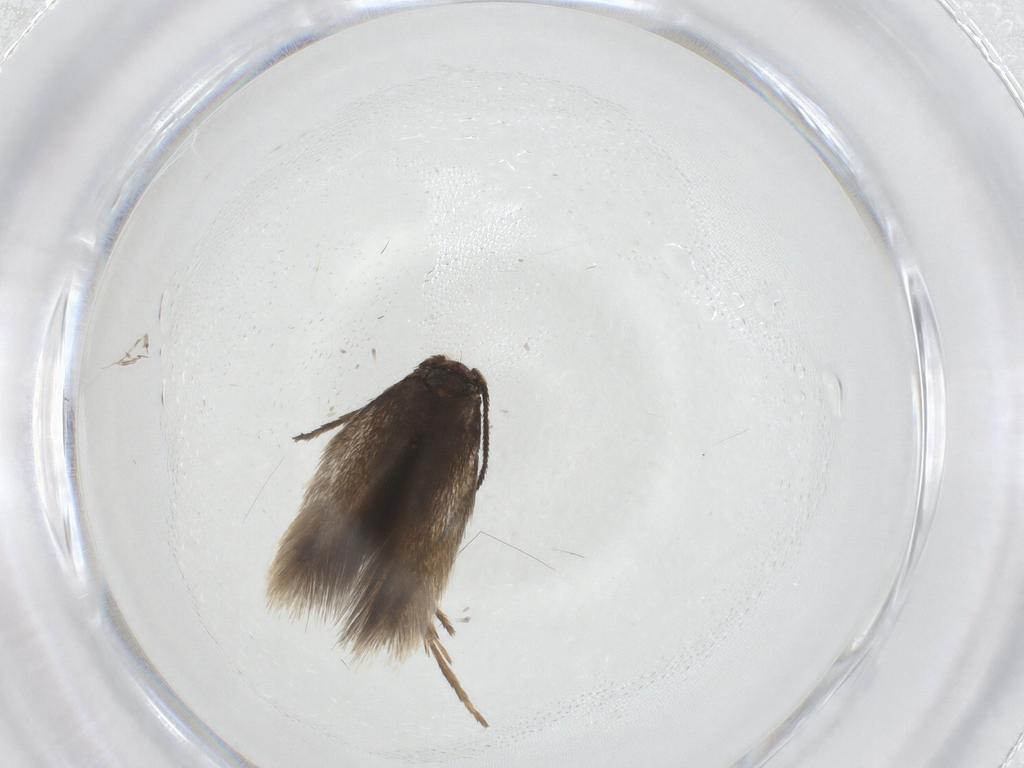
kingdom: Animalia
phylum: Arthropoda
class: Insecta
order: Lepidoptera
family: Nepticulidae
